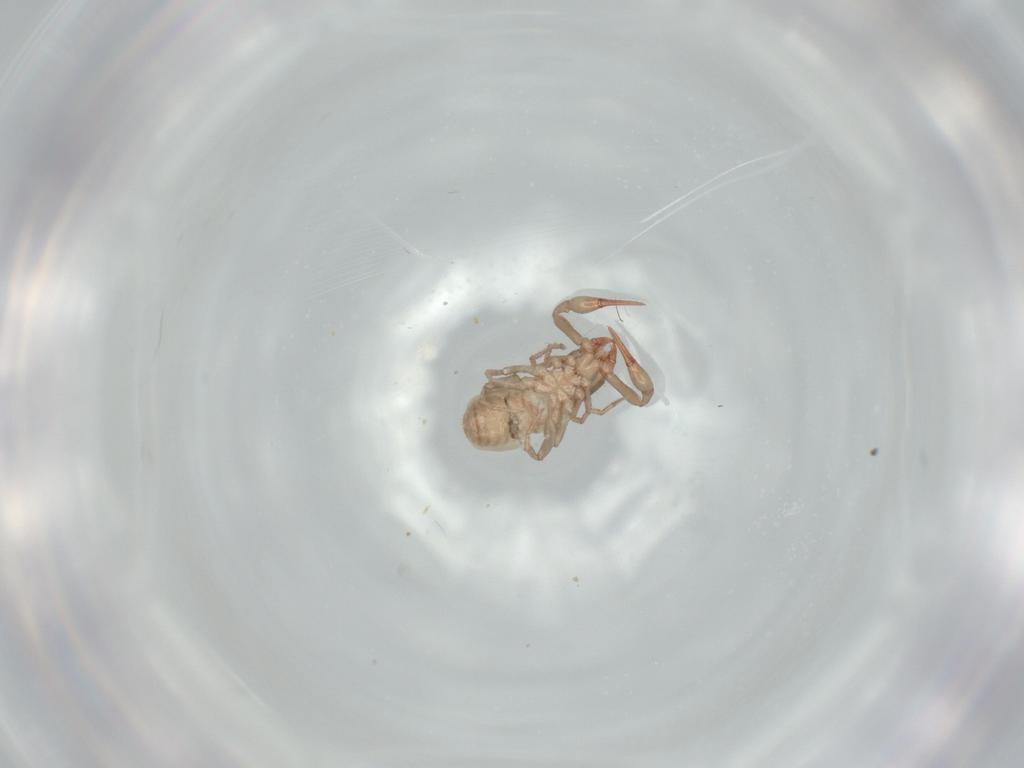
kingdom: Animalia
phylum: Arthropoda
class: Arachnida
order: Pseudoscorpiones
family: Chthoniidae
